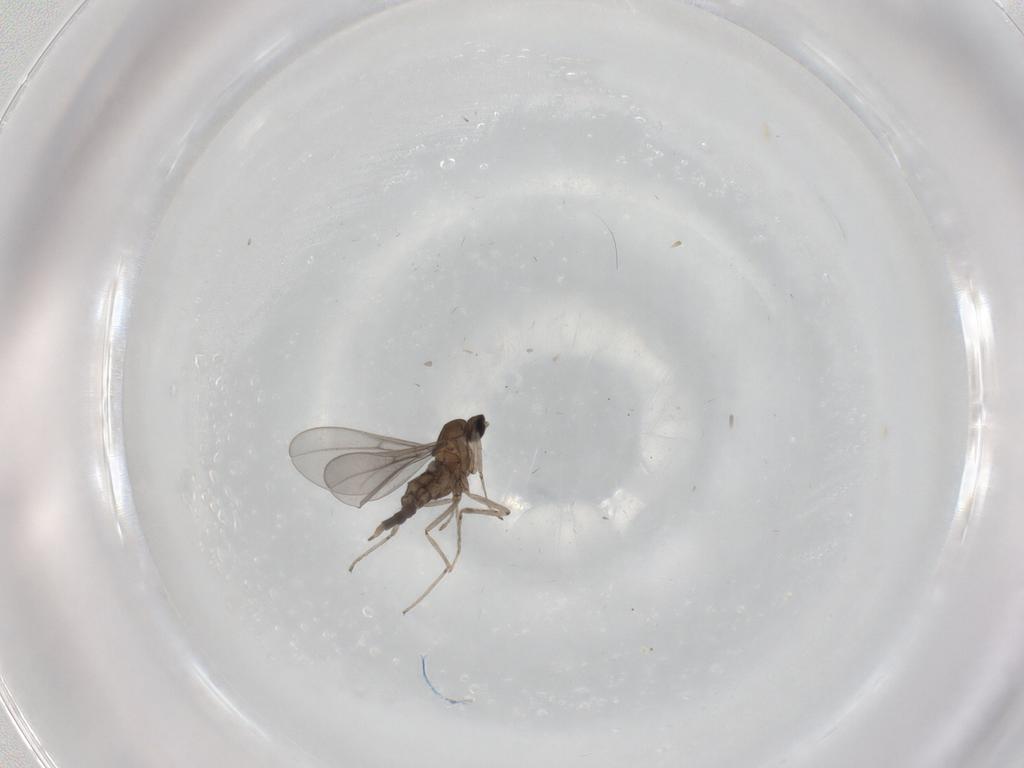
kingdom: Animalia
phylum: Arthropoda
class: Insecta
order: Diptera
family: Cecidomyiidae
